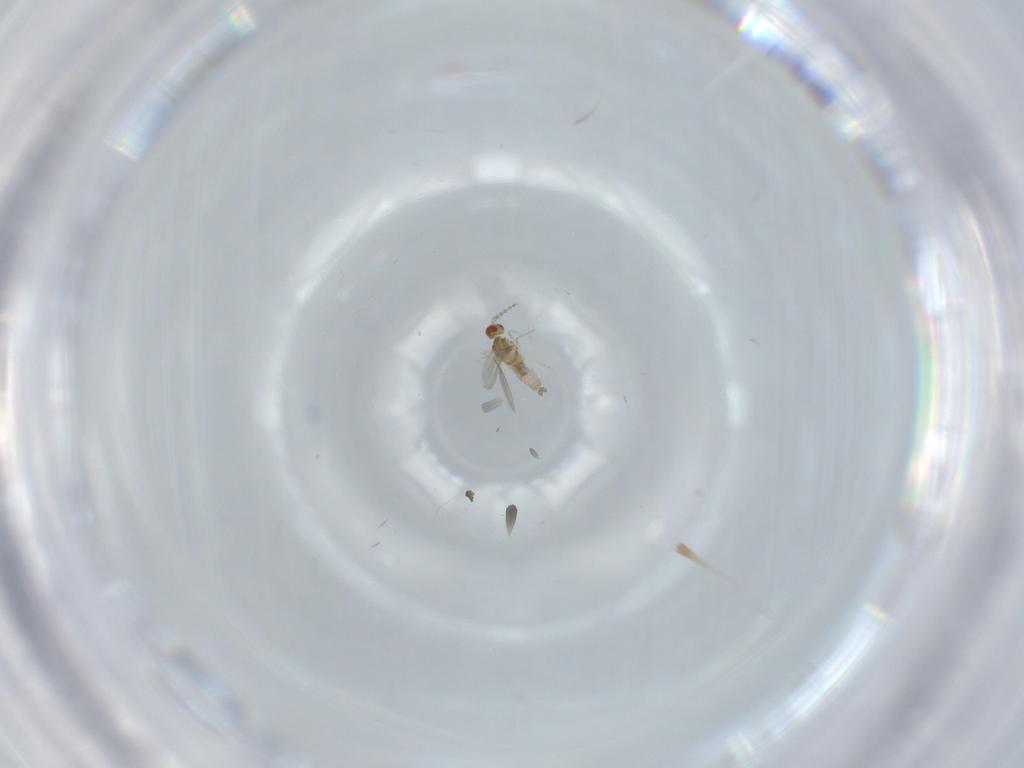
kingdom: Animalia
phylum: Arthropoda
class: Insecta
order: Diptera
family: Cecidomyiidae
